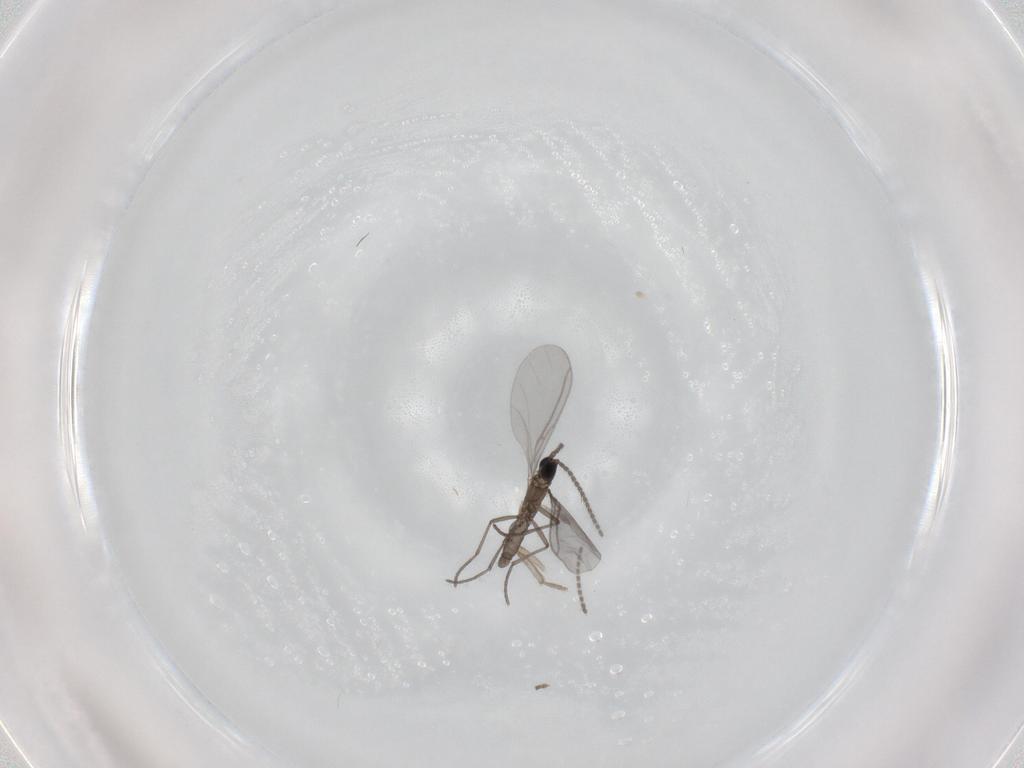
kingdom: Animalia
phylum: Arthropoda
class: Insecta
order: Diptera
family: Sciaridae
